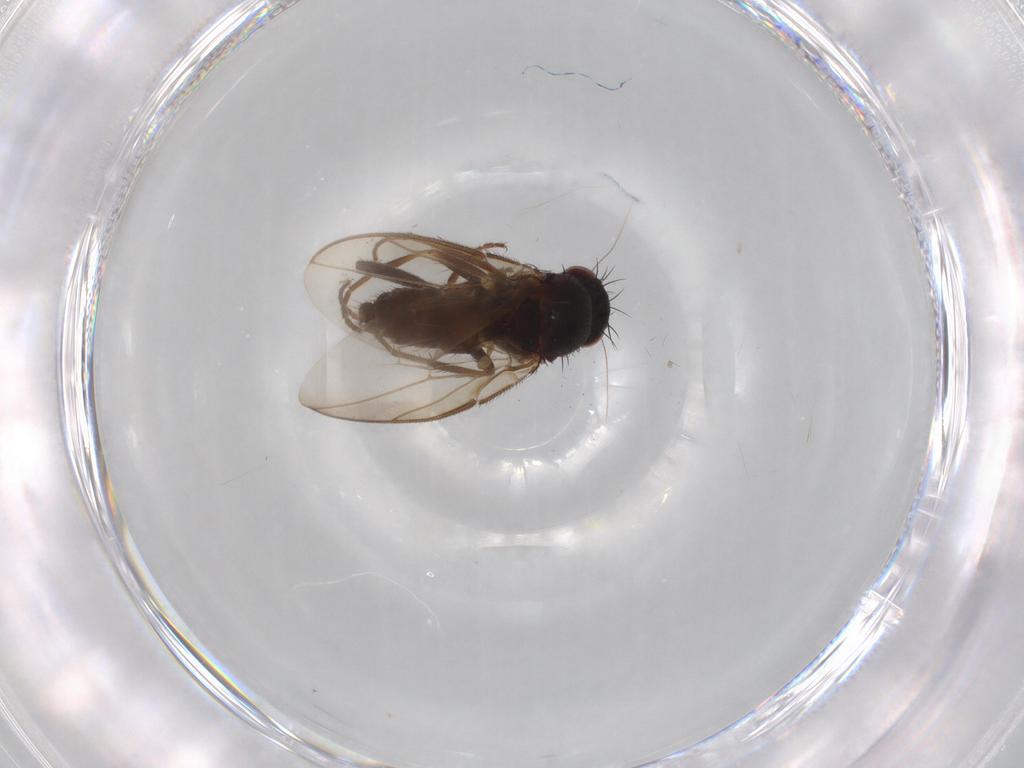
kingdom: Animalia
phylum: Arthropoda
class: Insecta
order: Diptera
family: Sphaeroceridae
